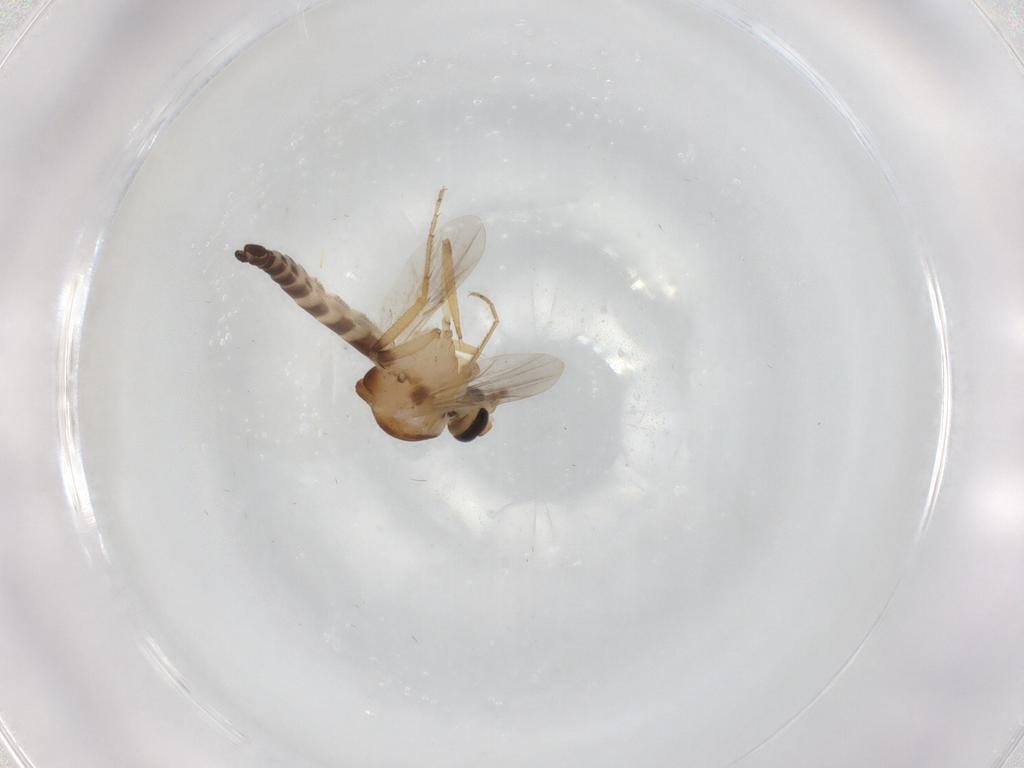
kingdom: Animalia
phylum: Arthropoda
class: Insecta
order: Diptera
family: Ceratopogonidae
